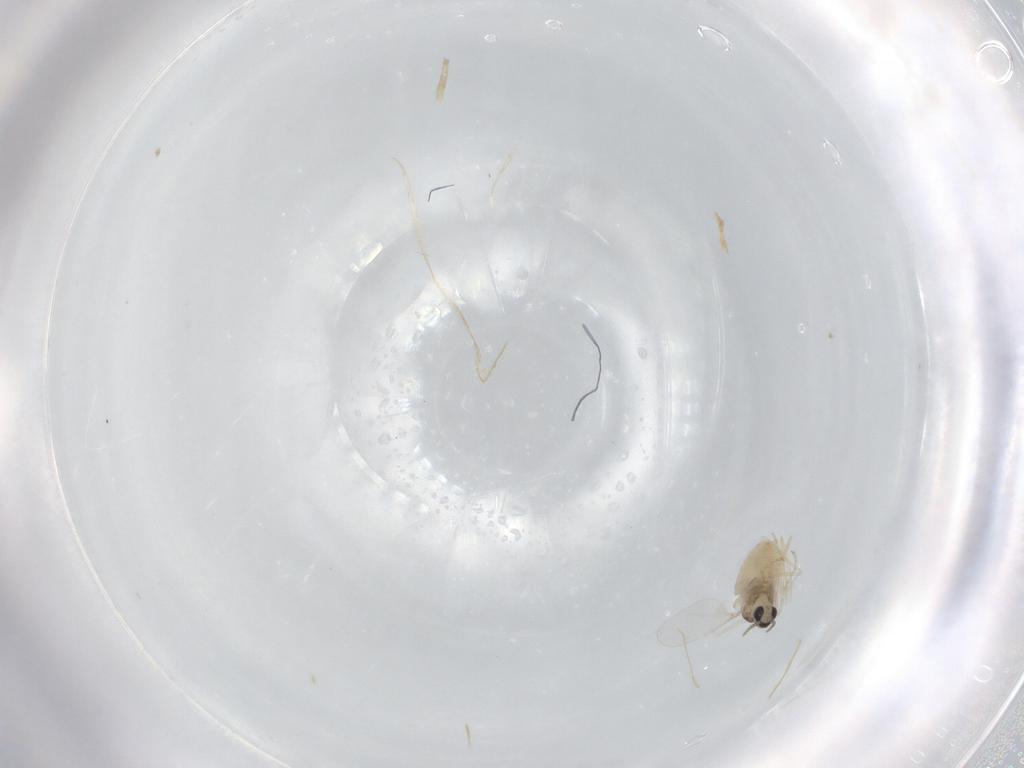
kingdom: Animalia
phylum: Arthropoda
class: Insecta
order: Diptera
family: Cecidomyiidae
